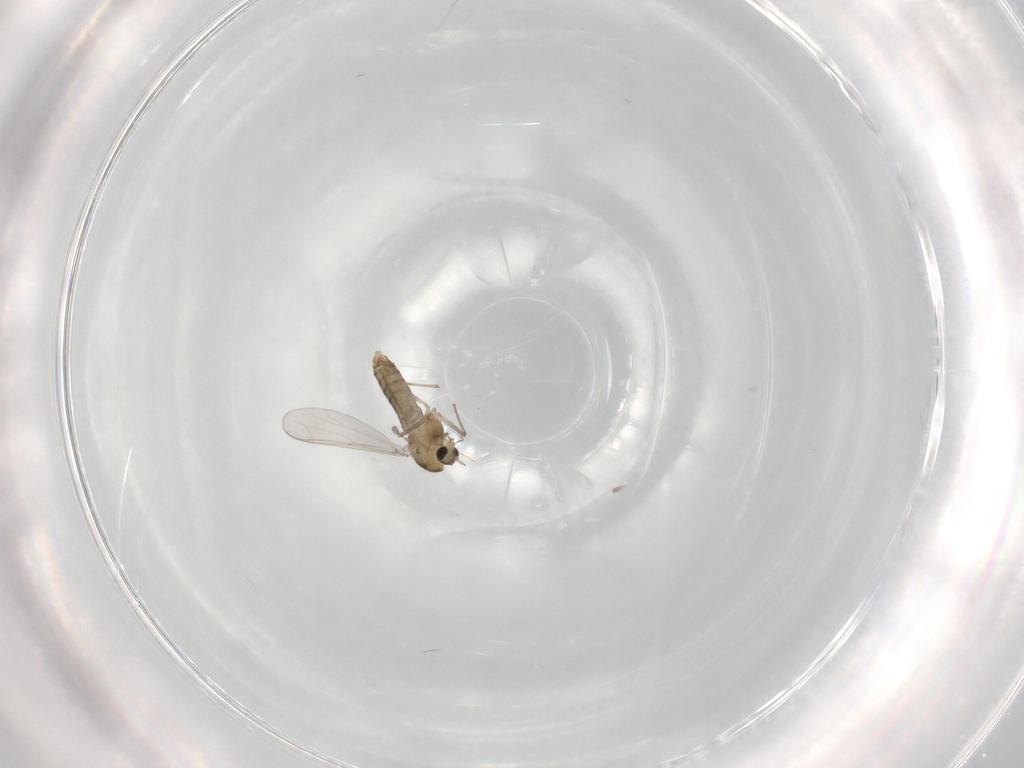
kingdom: Animalia
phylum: Arthropoda
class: Insecta
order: Diptera
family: Chironomidae
